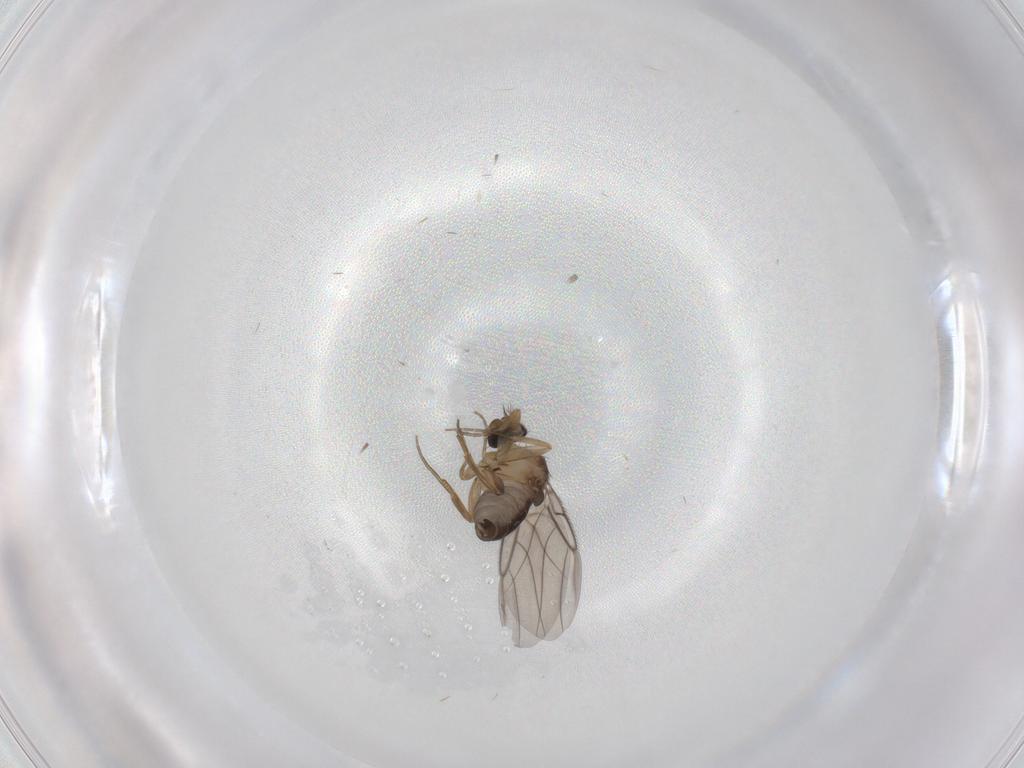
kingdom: Animalia
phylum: Arthropoda
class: Insecta
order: Diptera
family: Phoridae
